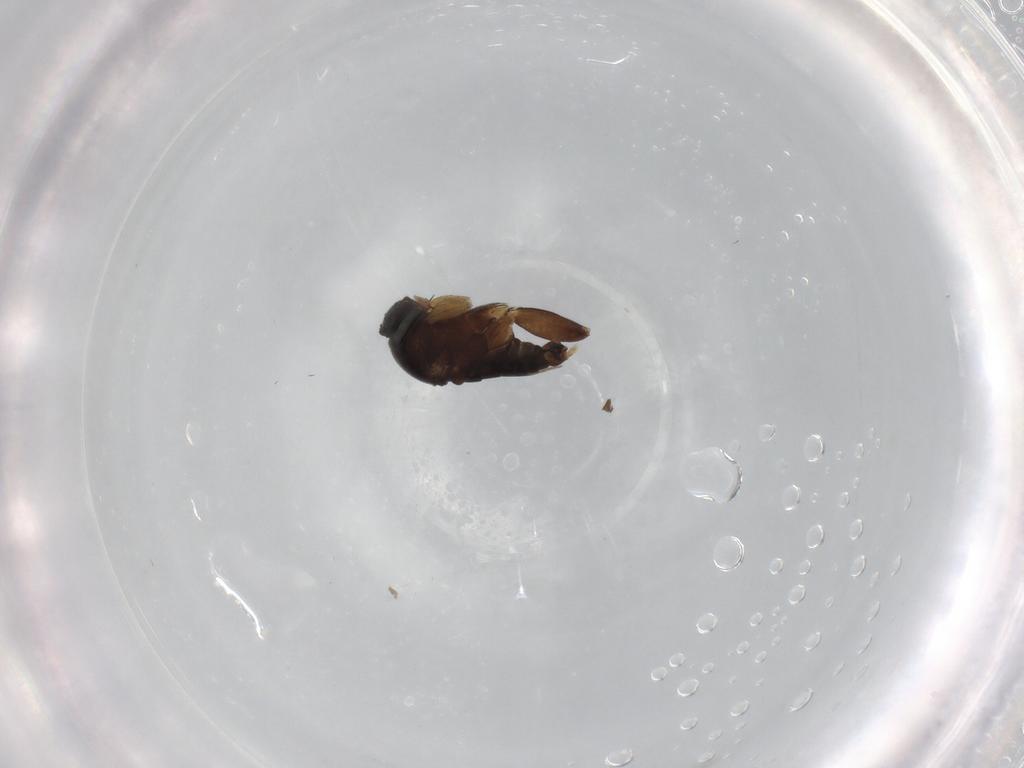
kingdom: Animalia
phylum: Arthropoda
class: Insecta
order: Diptera
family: Phoridae
